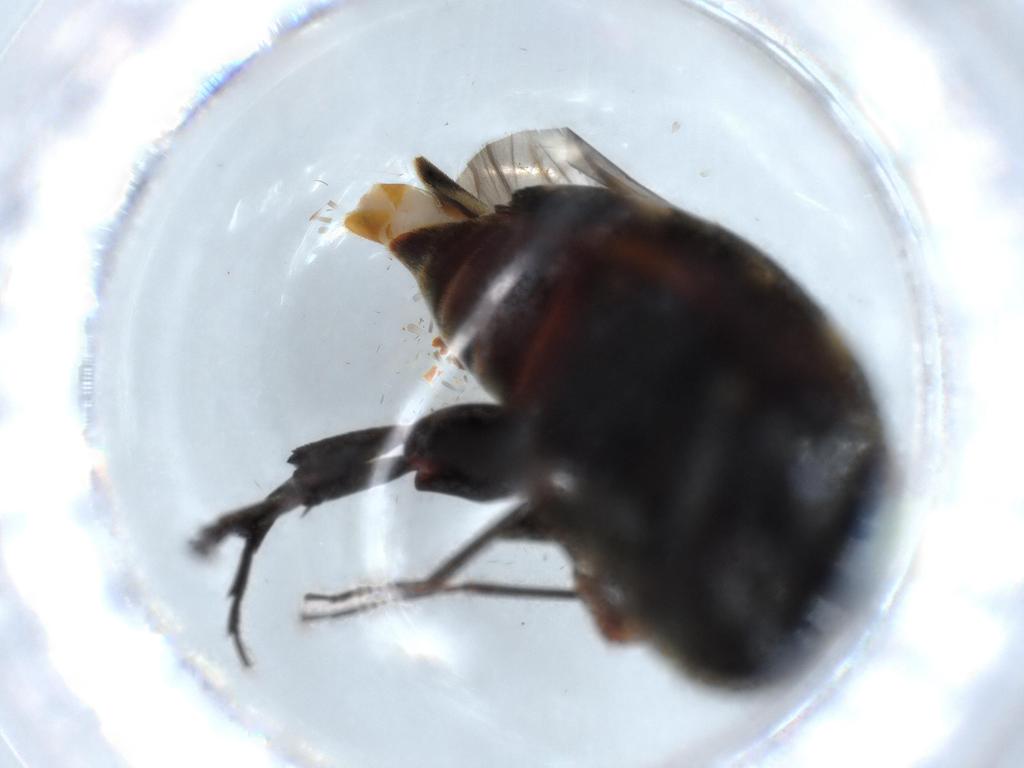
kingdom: Animalia
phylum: Arthropoda
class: Insecta
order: Coleoptera
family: Mordellidae
